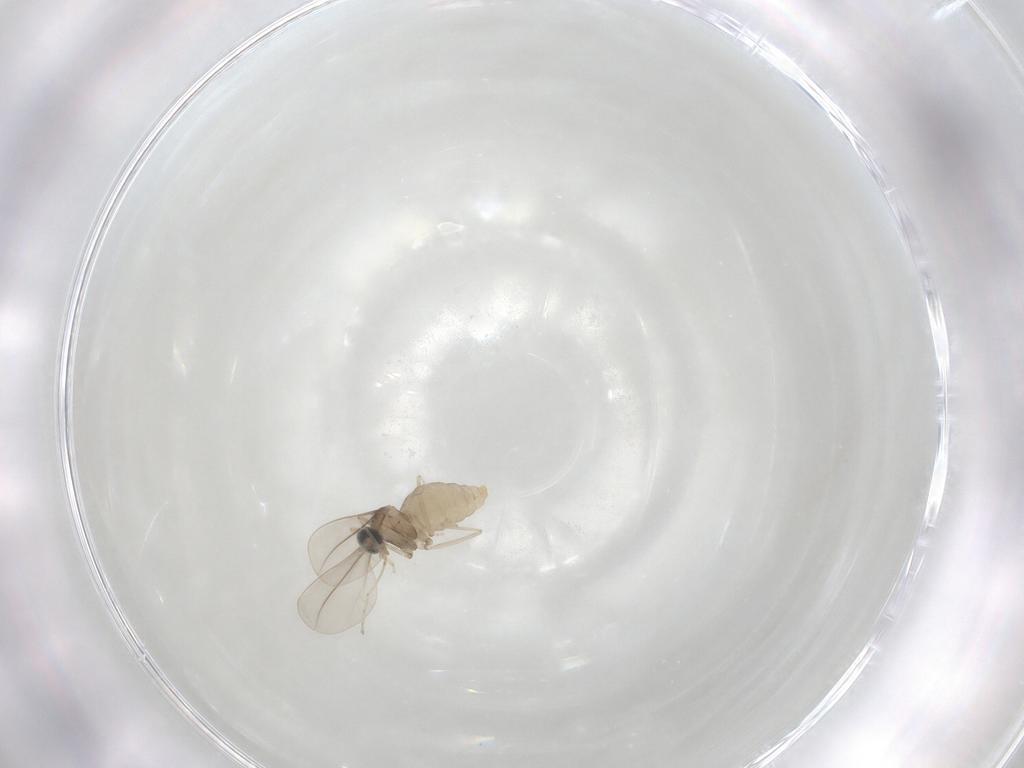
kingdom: Animalia
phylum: Arthropoda
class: Insecta
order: Diptera
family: Cecidomyiidae
